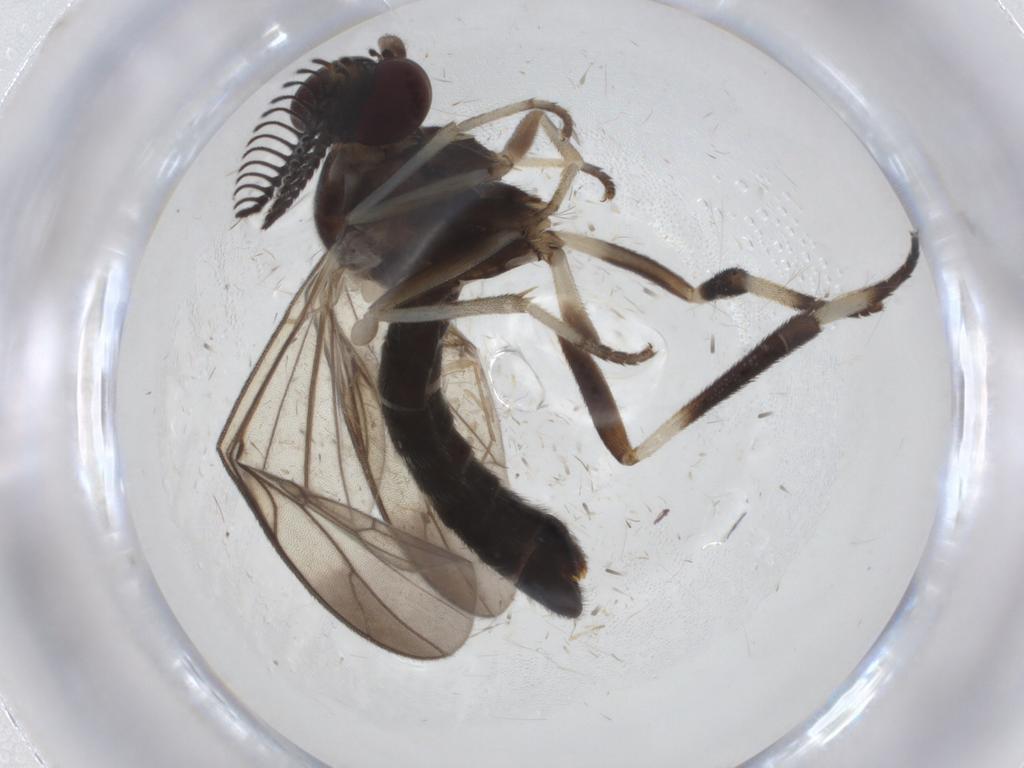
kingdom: Animalia
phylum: Arthropoda
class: Insecta
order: Diptera
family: Xylophagidae
